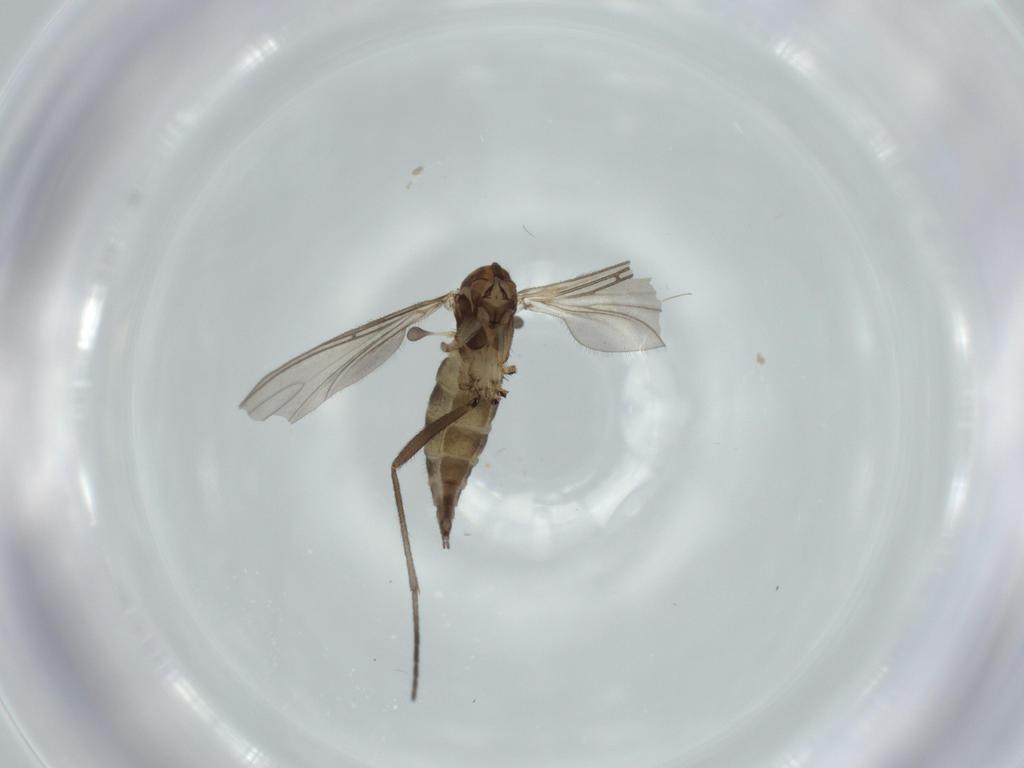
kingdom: Animalia
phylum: Arthropoda
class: Insecta
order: Diptera
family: Sciaridae
